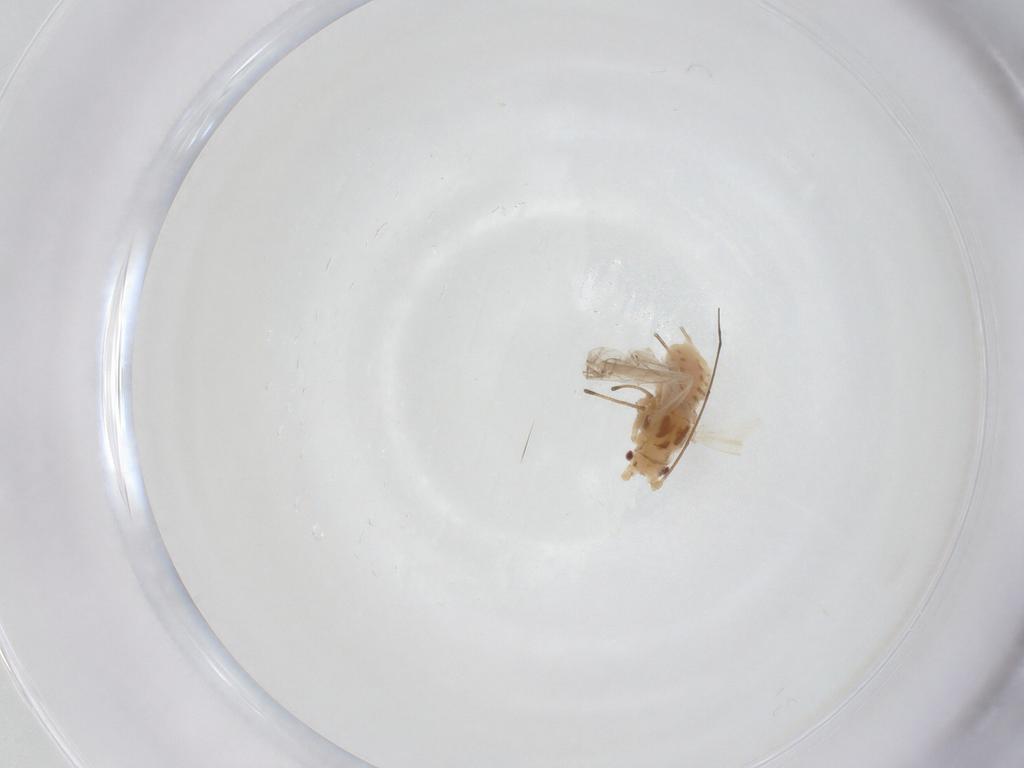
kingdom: Animalia
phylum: Arthropoda
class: Insecta
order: Hemiptera
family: Aphididae
